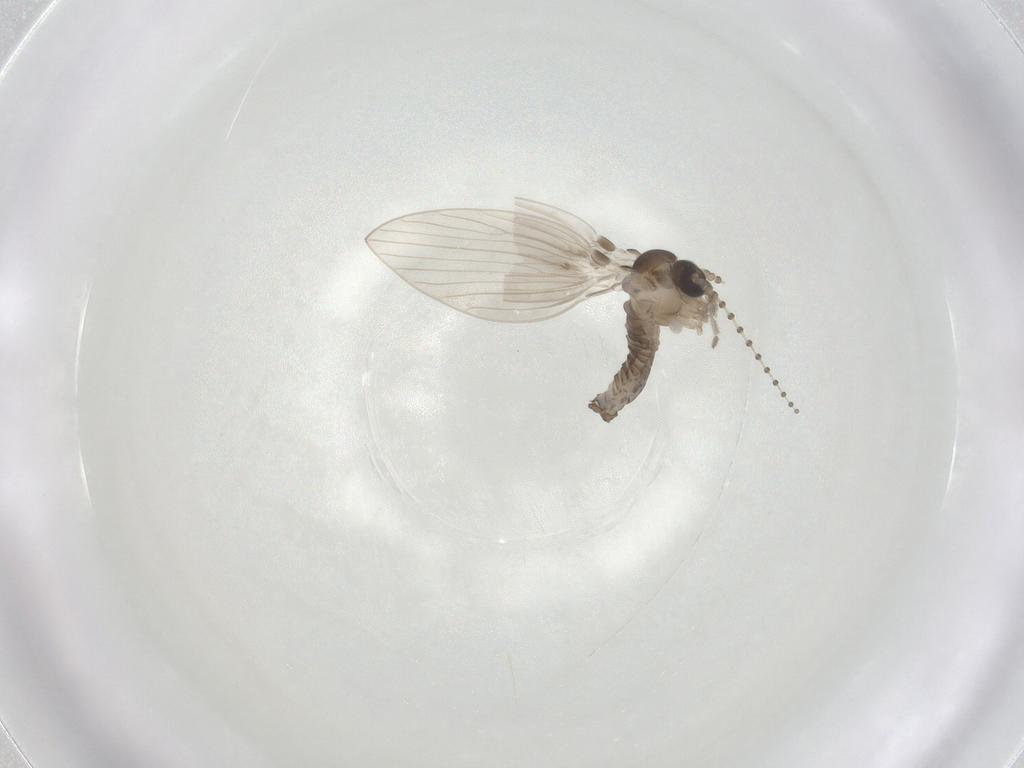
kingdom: Animalia
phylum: Arthropoda
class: Insecta
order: Diptera
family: Psychodidae
